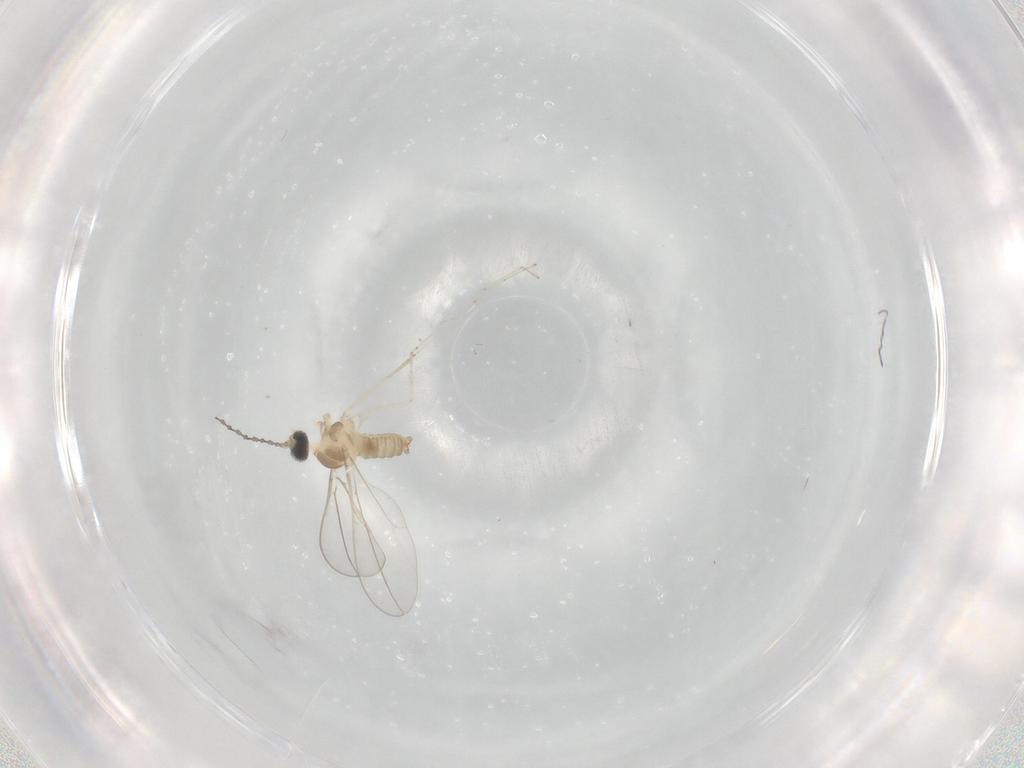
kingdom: Animalia
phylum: Arthropoda
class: Insecta
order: Diptera
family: Cecidomyiidae
